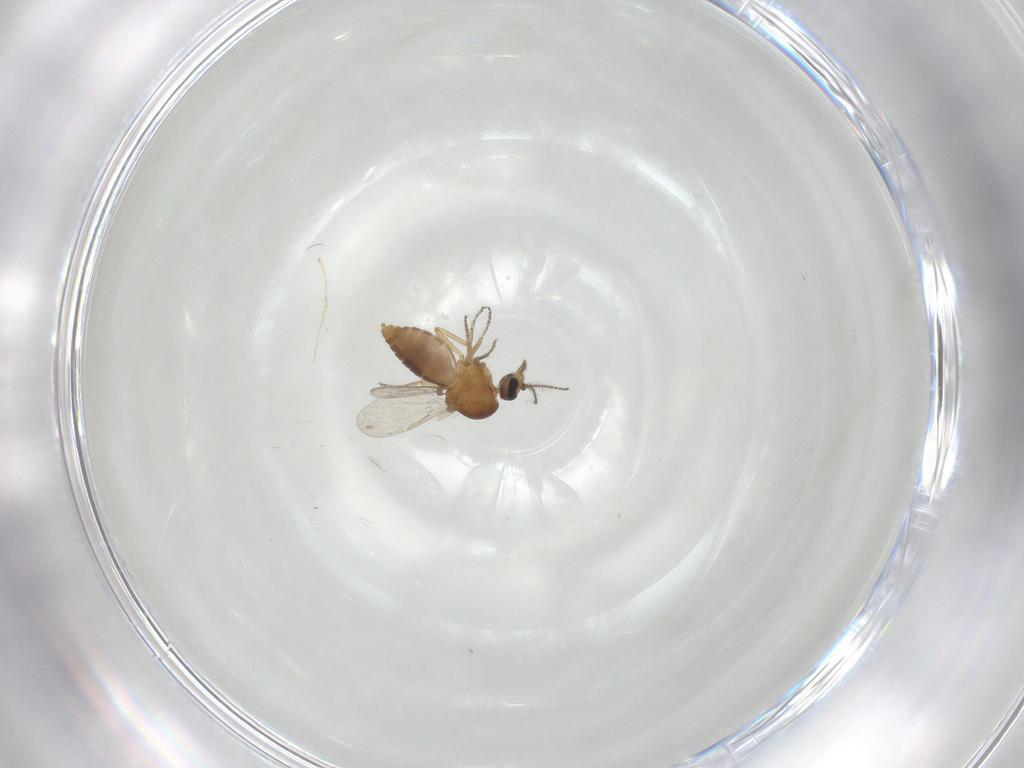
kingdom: Animalia
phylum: Arthropoda
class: Insecta
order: Diptera
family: Ceratopogonidae
